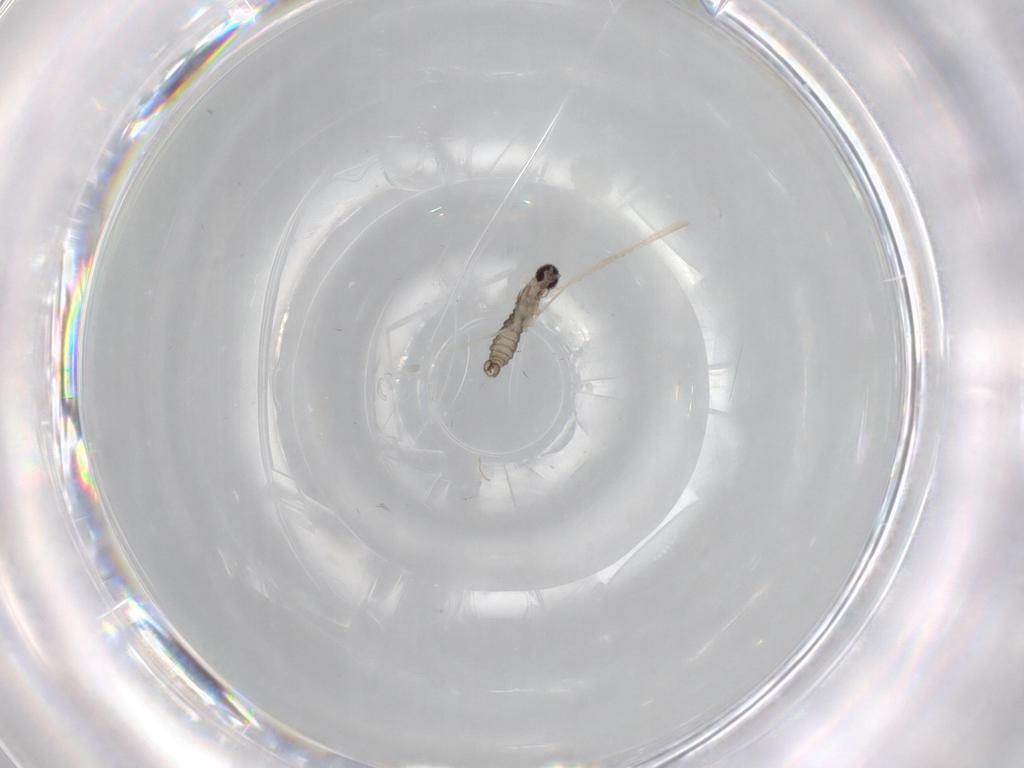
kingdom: Animalia
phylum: Arthropoda
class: Insecta
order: Diptera
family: Cecidomyiidae
